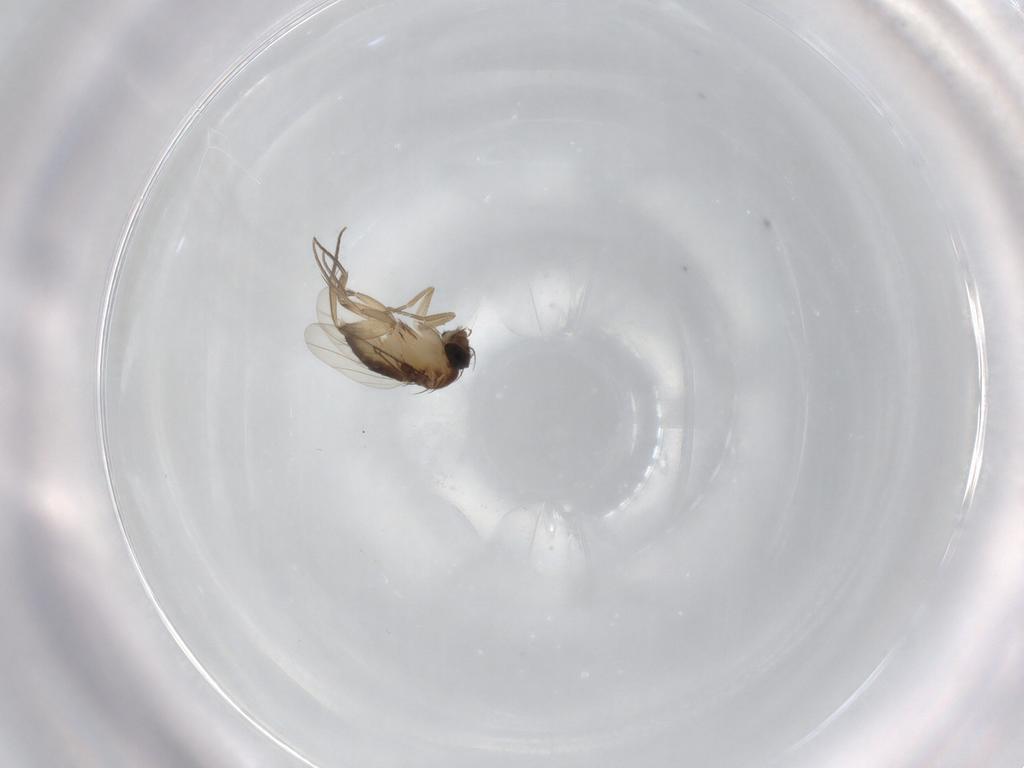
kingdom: Animalia
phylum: Arthropoda
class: Insecta
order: Diptera
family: Phoridae
